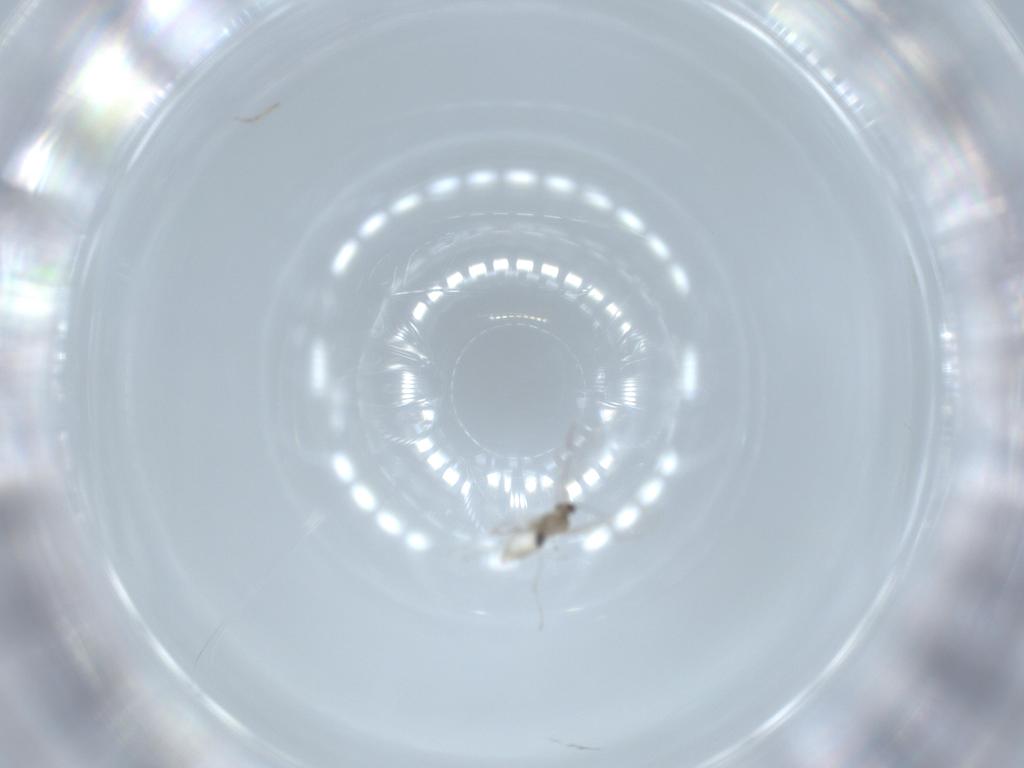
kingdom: Animalia
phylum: Arthropoda
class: Insecta
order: Diptera
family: Cecidomyiidae
